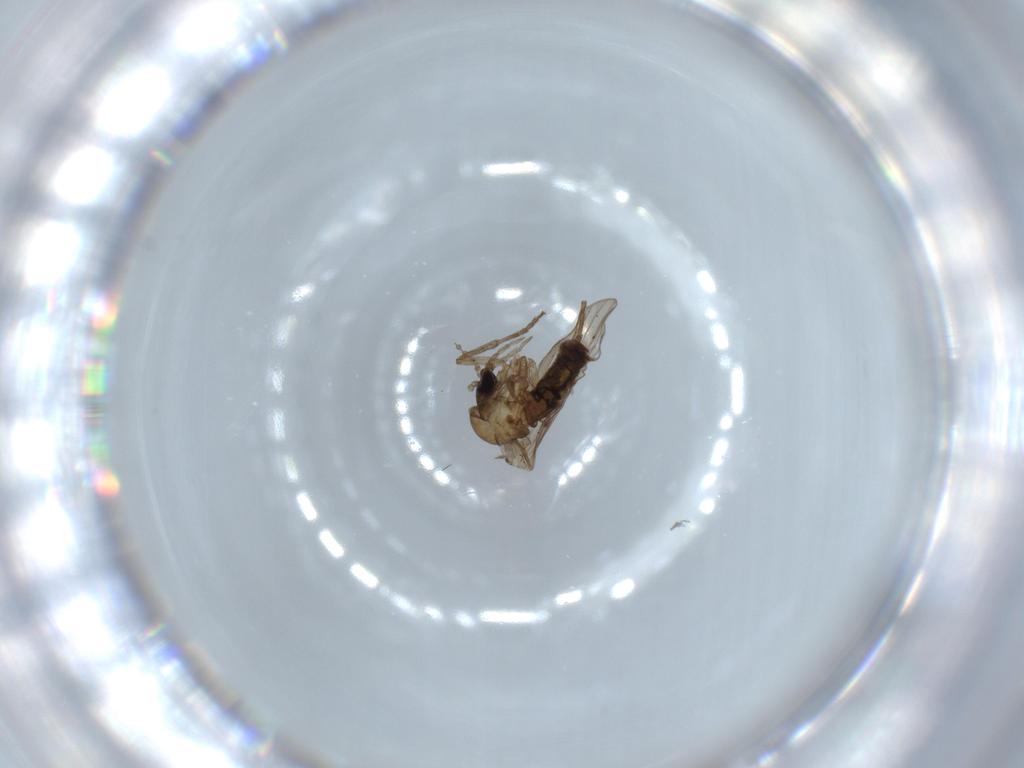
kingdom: Animalia
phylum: Arthropoda
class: Insecta
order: Diptera
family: Psychodidae
